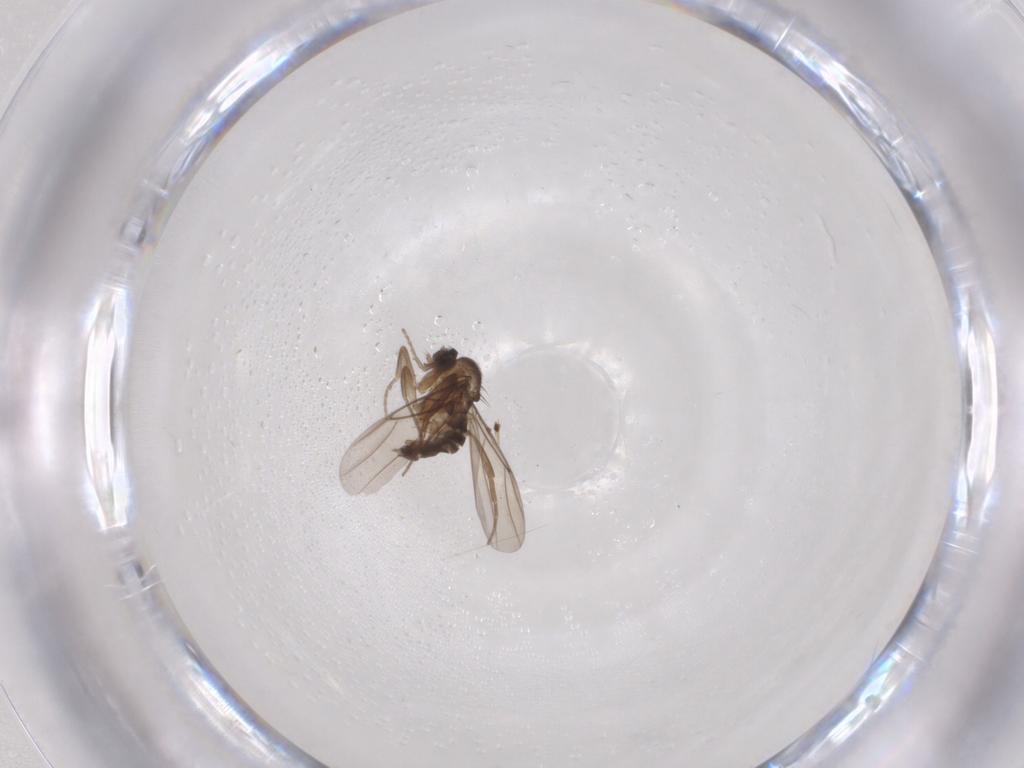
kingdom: Animalia
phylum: Arthropoda
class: Insecta
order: Diptera
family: Phoridae
